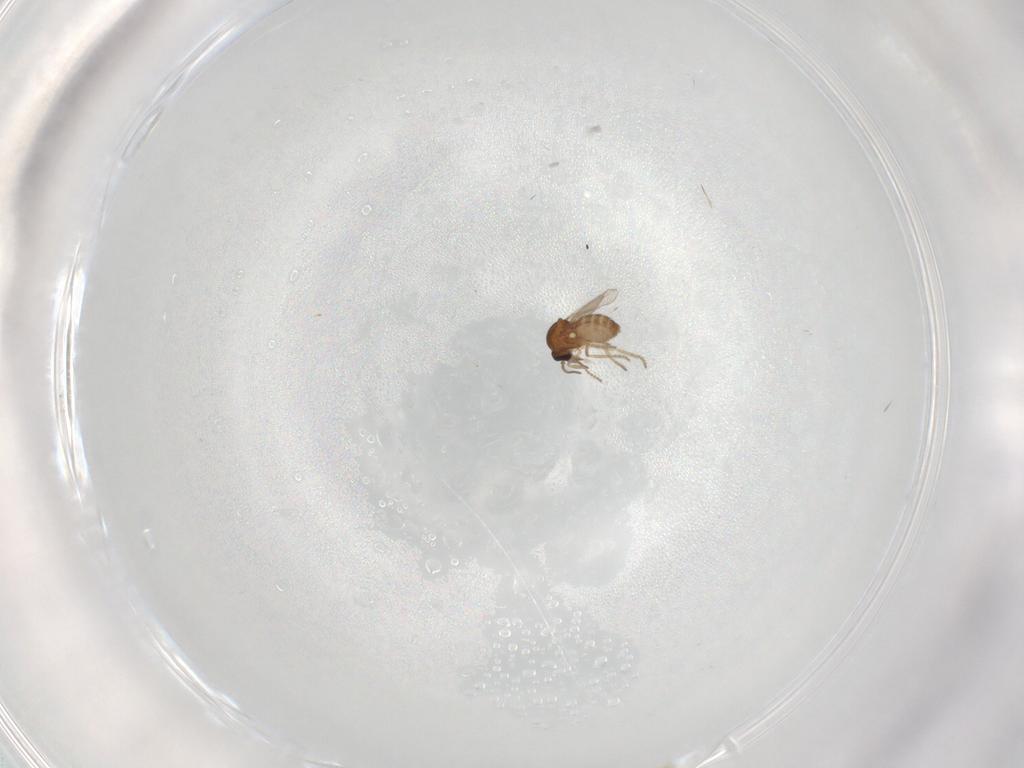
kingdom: Animalia
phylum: Arthropoda
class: Insecta
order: Diptera
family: Ceratopogonidae
